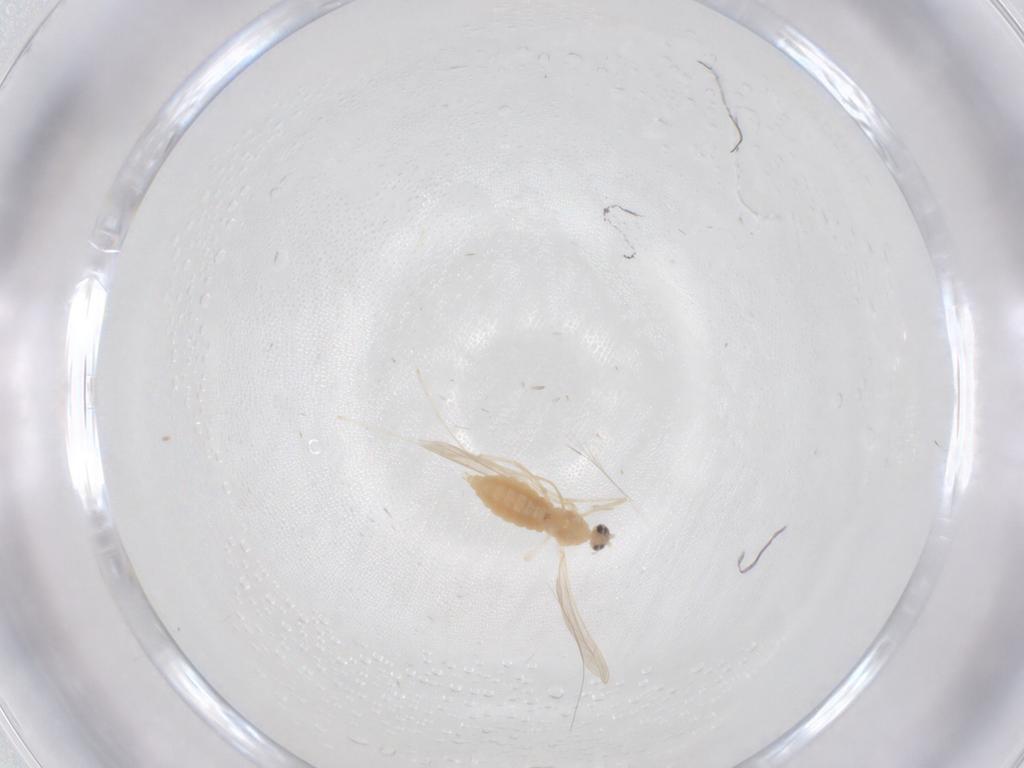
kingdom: Animalia
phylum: Arthropoda
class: Insecta
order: Diptera
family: Cecidomyiidae
